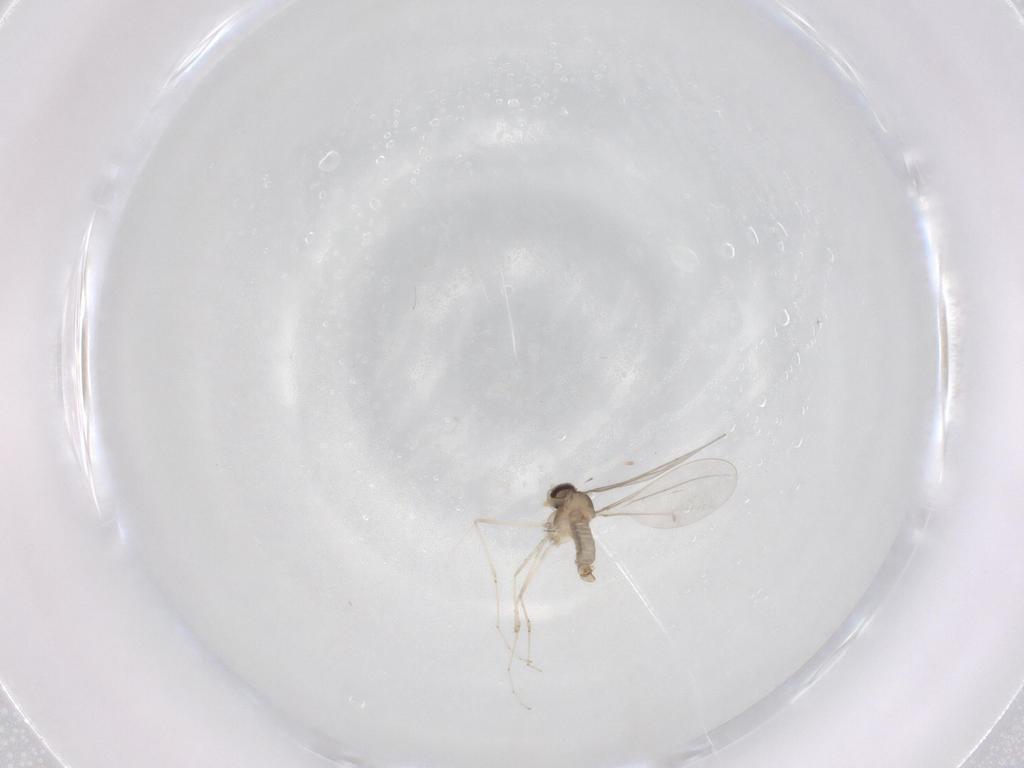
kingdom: Animalia
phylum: Arthropoda
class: Insecta
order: Diptera
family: Cecidomyiidae
